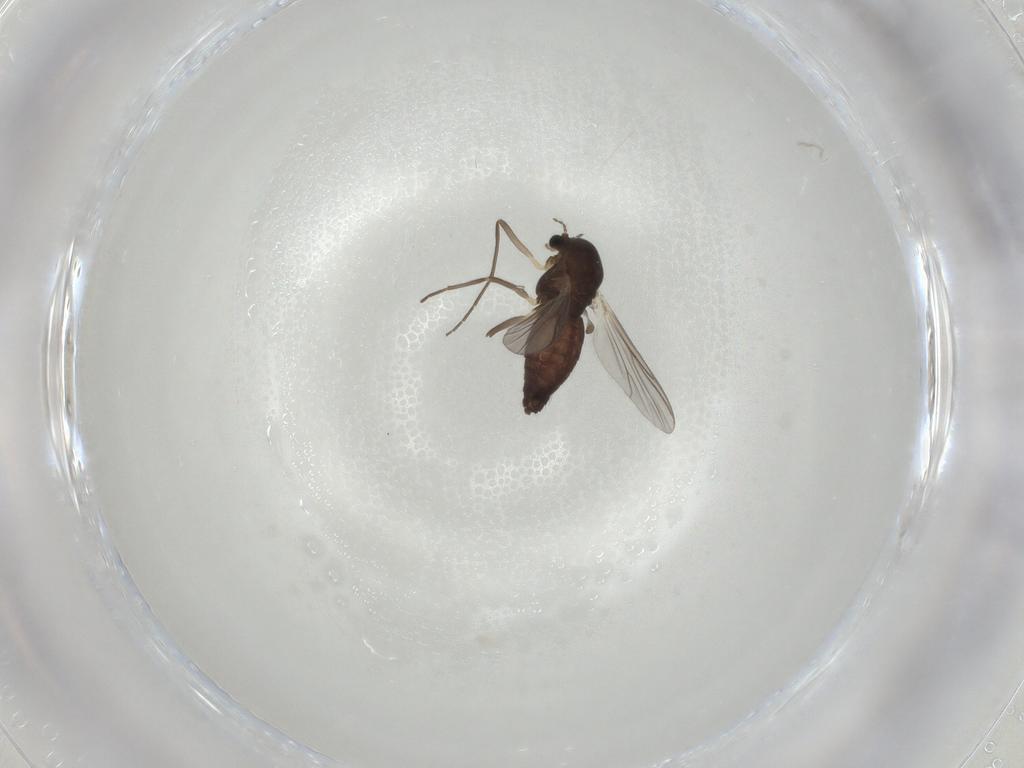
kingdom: Animalia
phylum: Arthropoda
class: Insecta
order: Diptera
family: Chironomidae
